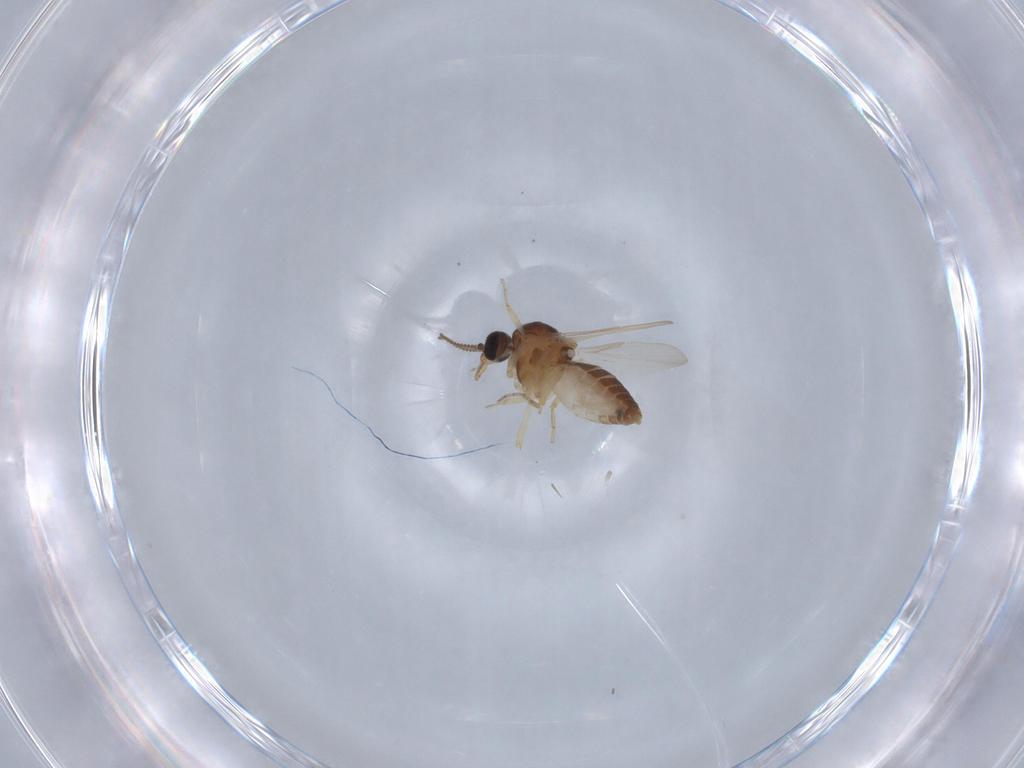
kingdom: Animalia
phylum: Arthropoda
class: Insecta
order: Diptera
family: Ceratopogonidae
